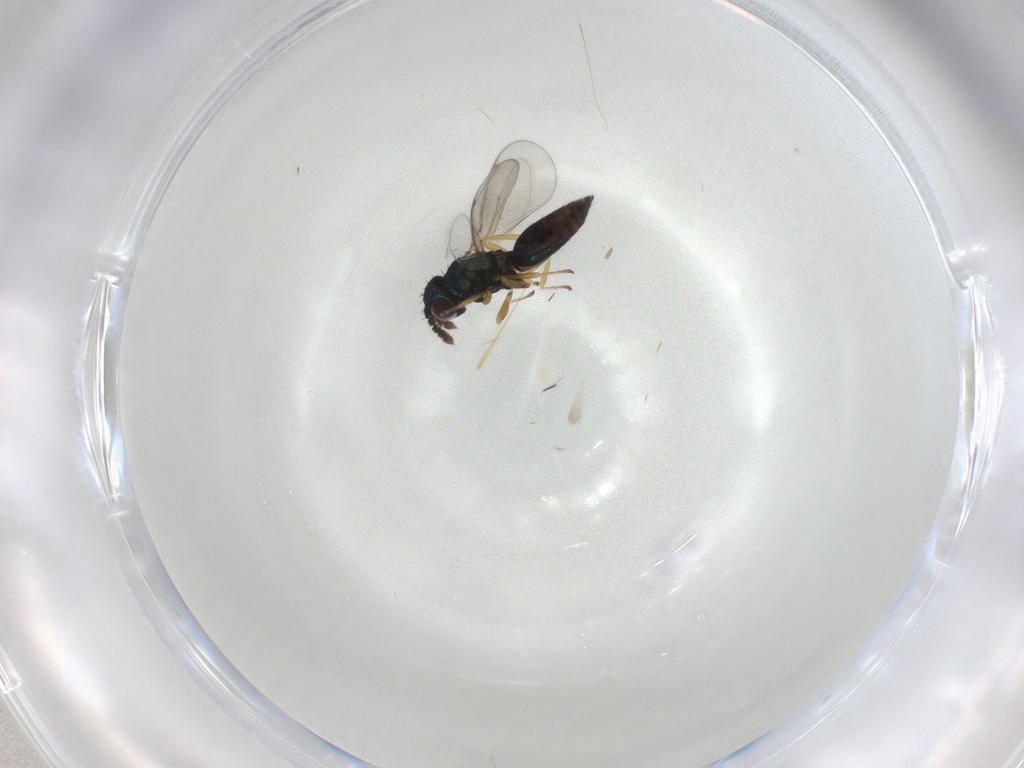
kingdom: Animalia
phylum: Arthropoda
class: Insecta
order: Hymenoptera
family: Eulophidae
